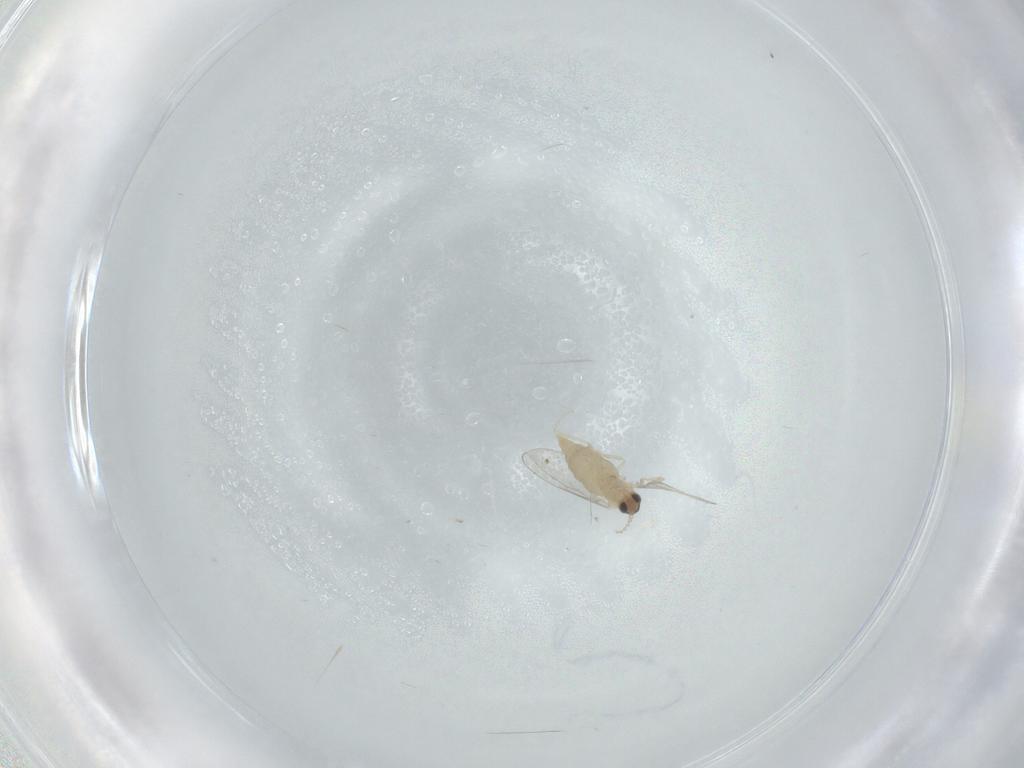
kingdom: Animalia
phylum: Arthropoda
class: Insecta
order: Diptera
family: Cecidomyiidae
